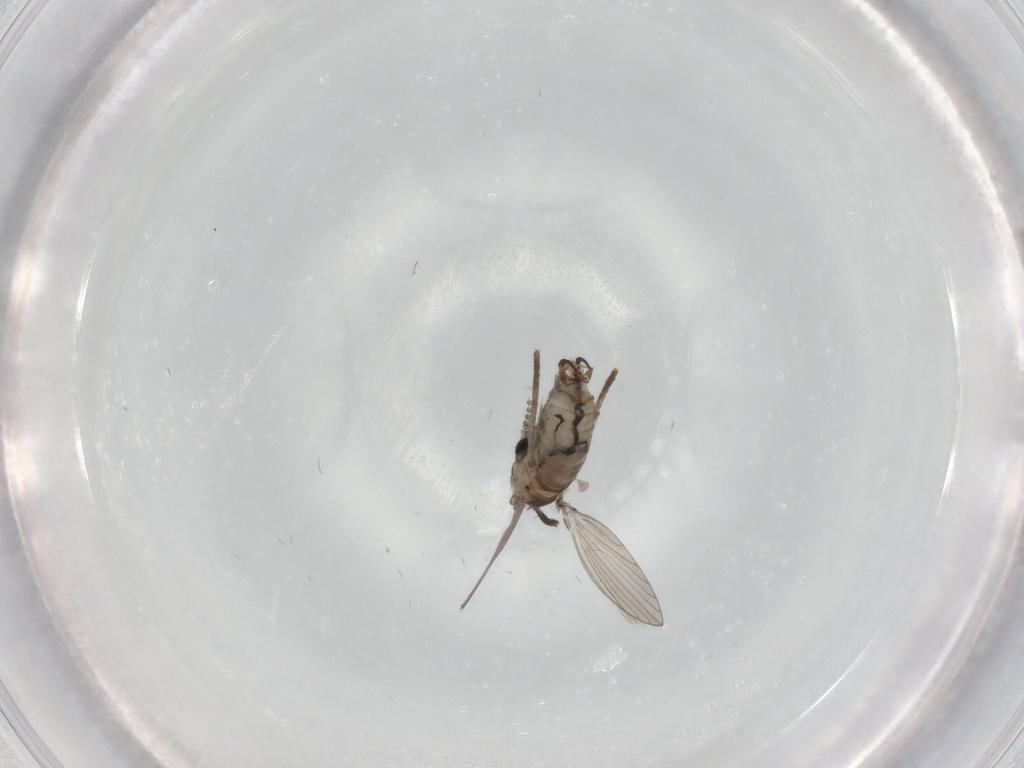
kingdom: Animalia
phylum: Arthropoda
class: Insecta
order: Diptera
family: Psychodidae
